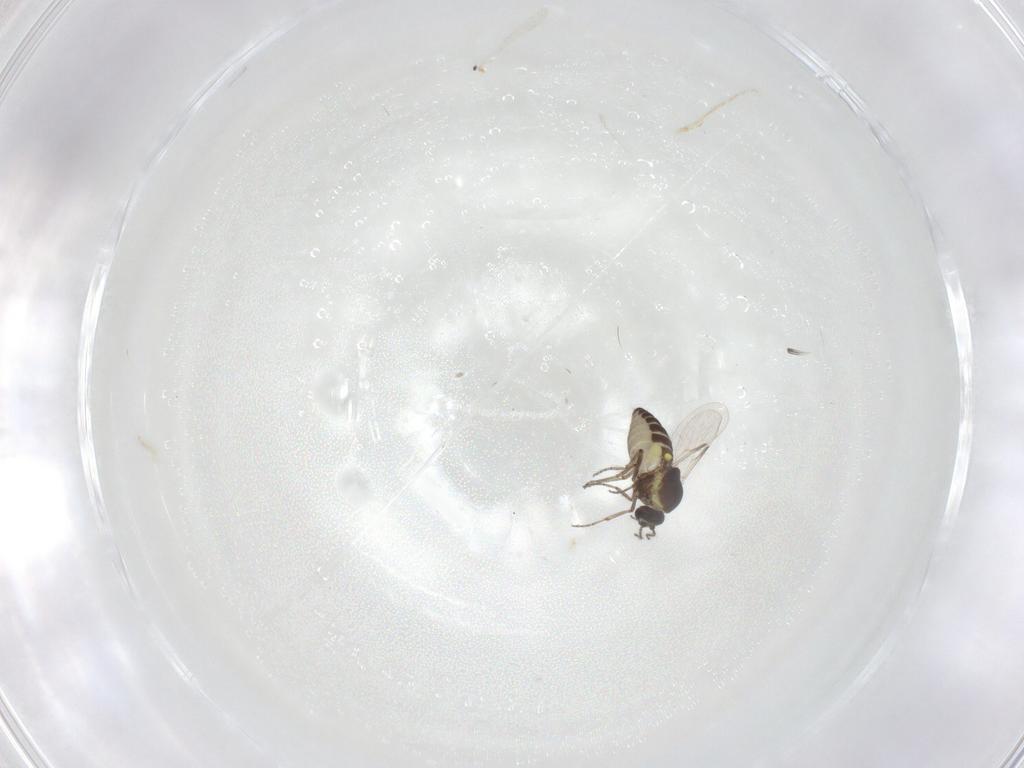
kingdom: Animalia
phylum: Arthropoda
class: Insecta
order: Diptera
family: Ceratopogonidae
